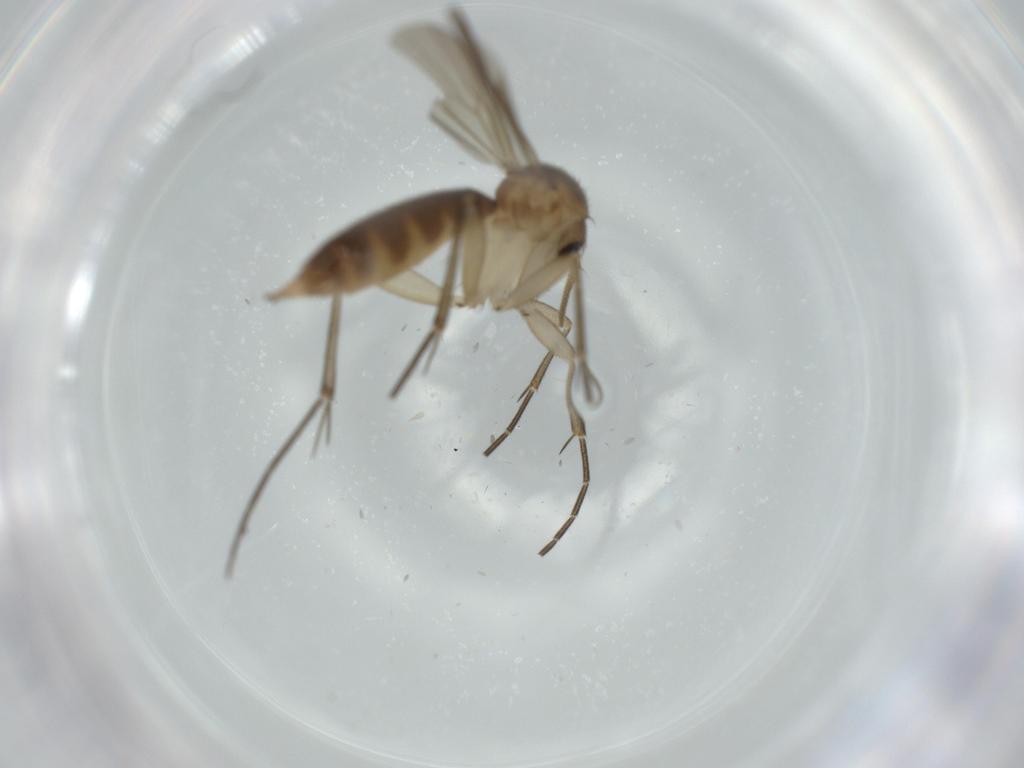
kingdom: Animalia
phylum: Arthropoda
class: Insecta
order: Diptera
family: Mycetophilidae
